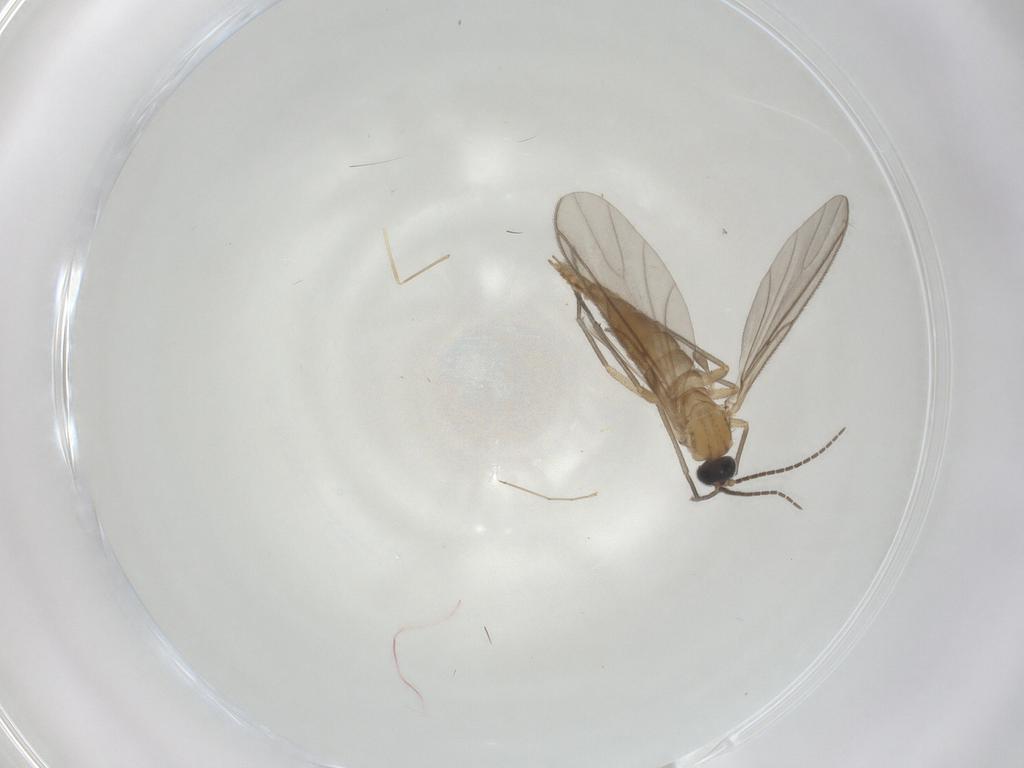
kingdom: Animalia
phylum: Arthropoda
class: Insecta
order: Diptera
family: Sciaridae
